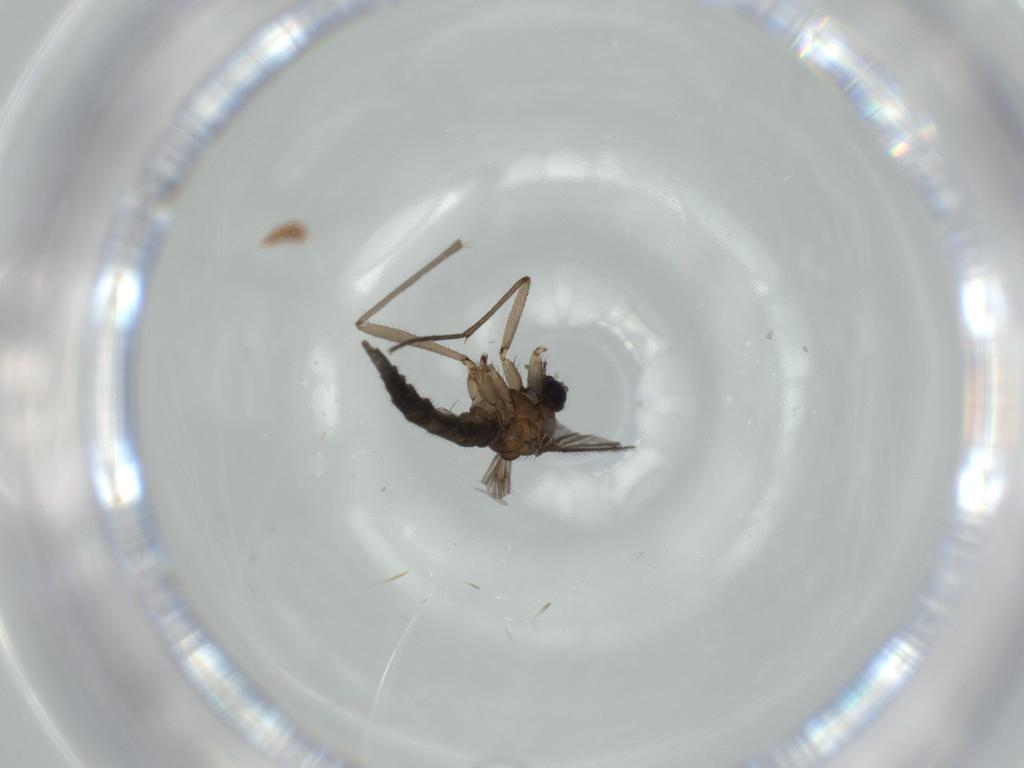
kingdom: Animalia
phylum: Arthropoda
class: Insecta
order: Diptera
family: Sciaridae
